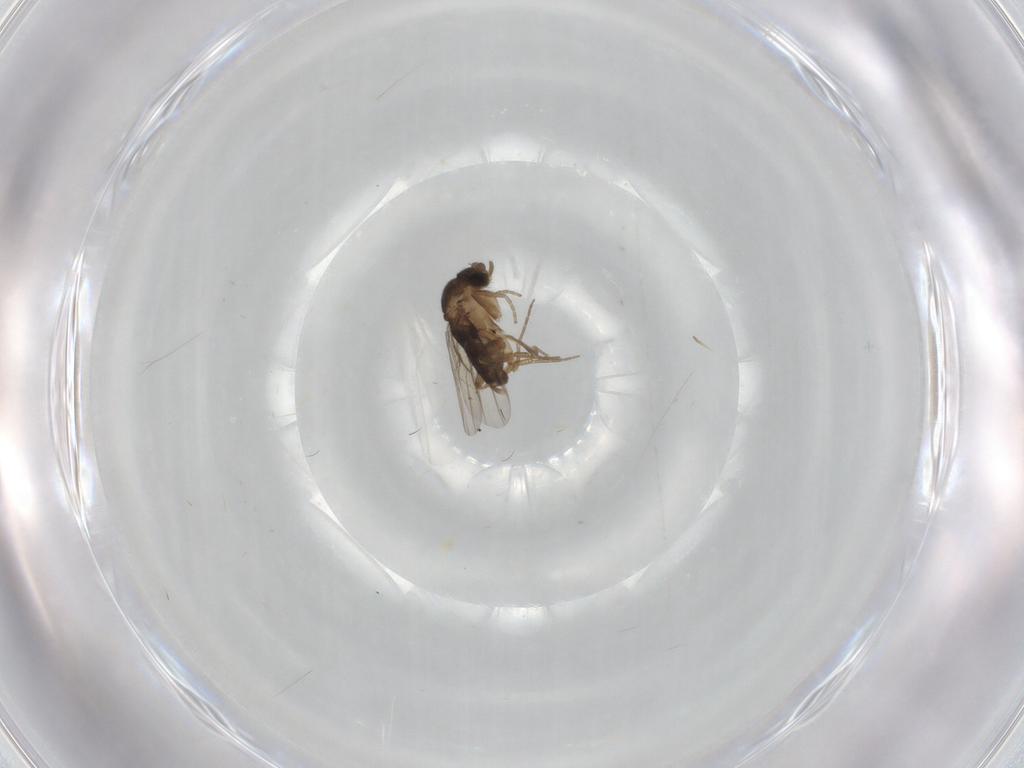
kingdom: Animalia
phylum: Arthropoda
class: Insecta
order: Diptera
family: Phoridae
